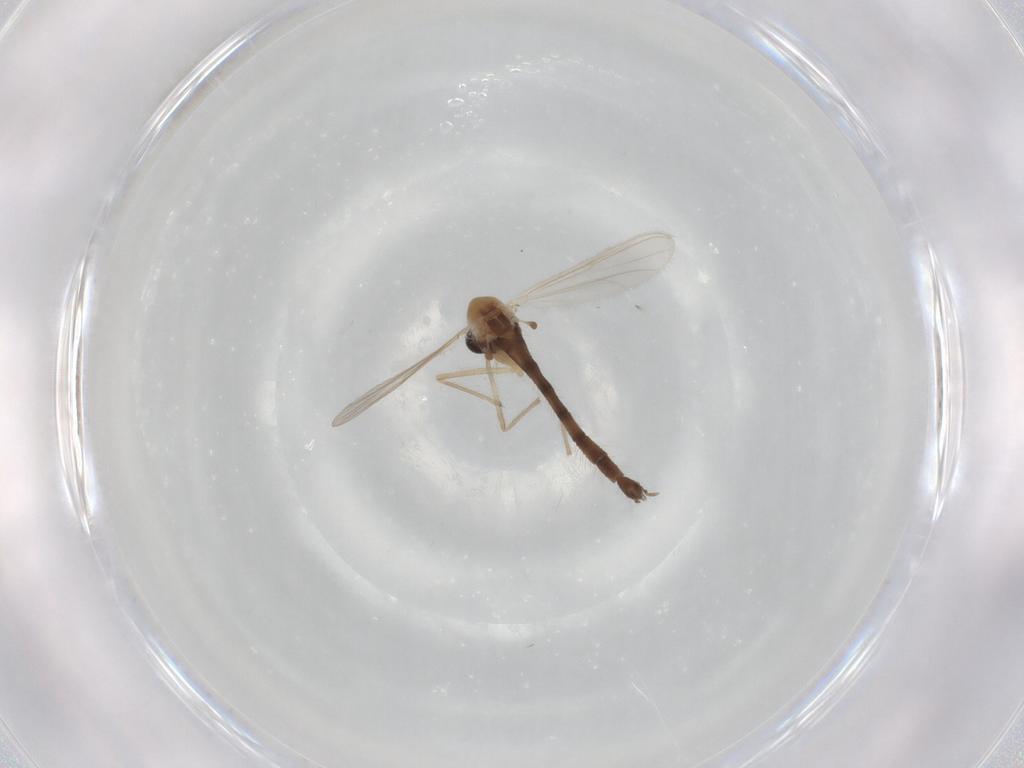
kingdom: Animalia
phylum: Arthropoda
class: Insecta
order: Diptera
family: Chironomidae
